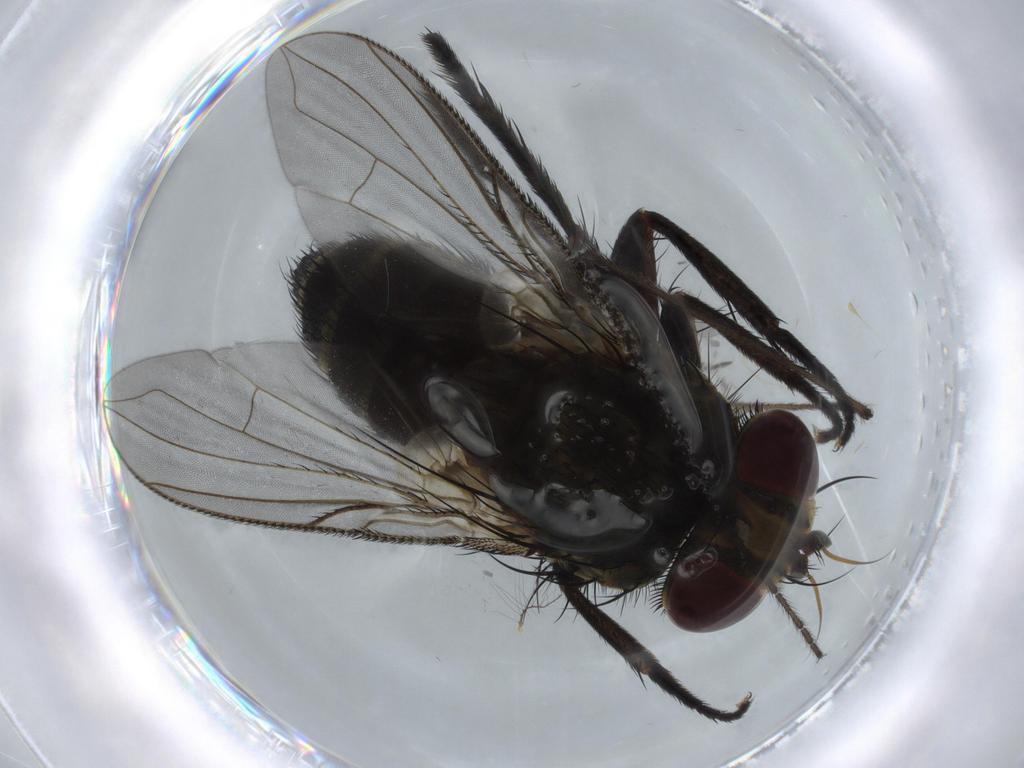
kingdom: Animalia
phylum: Arthropoda
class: Insecta
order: Diptera
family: Limoniidae
